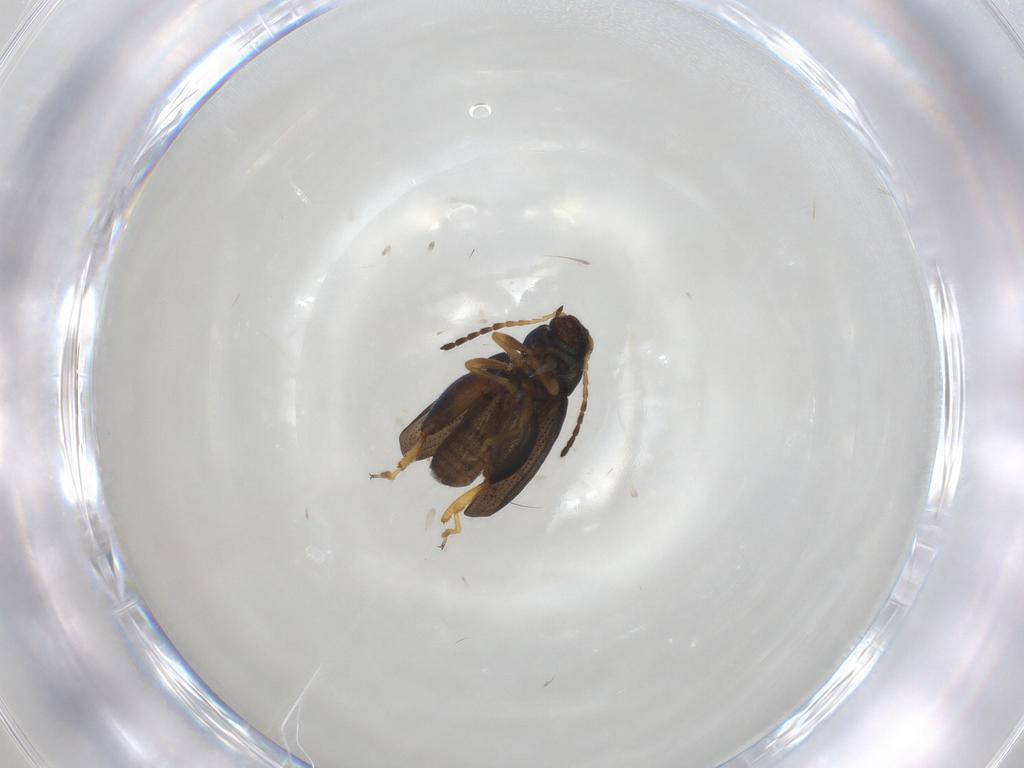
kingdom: Animalia
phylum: Arthropoda
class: Insecta
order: Coleoptera
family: Chrysomelidae
